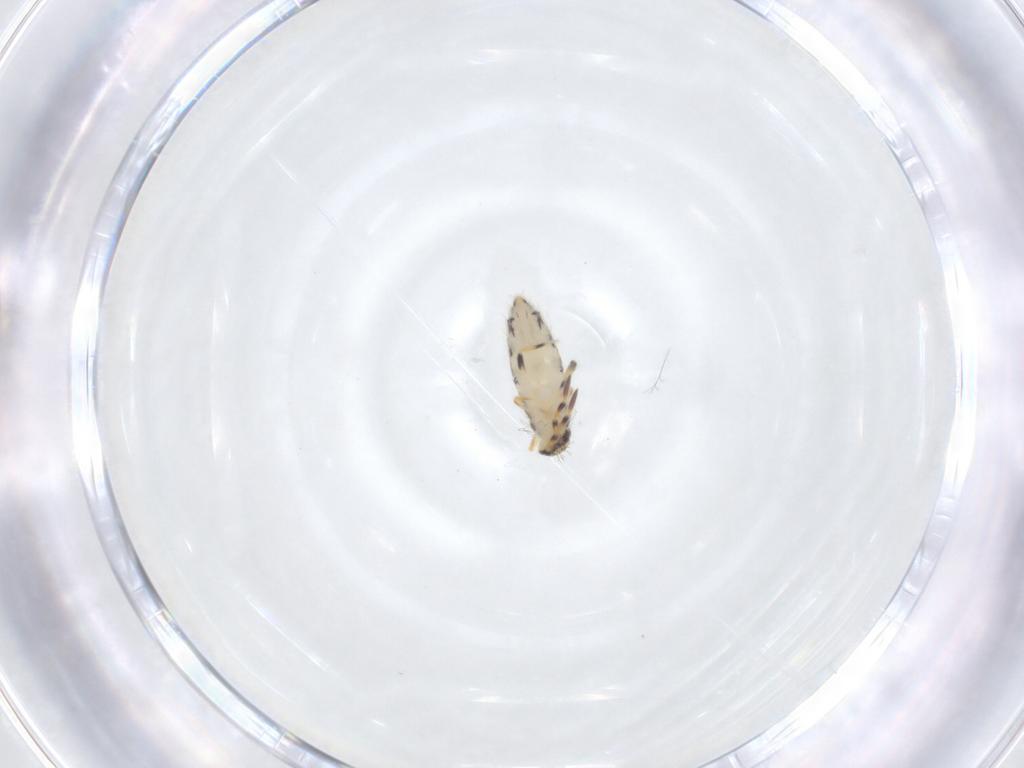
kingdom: Animalia
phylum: Arthropoda
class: Collembola
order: Entomobryomorpha
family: Isotomidae
